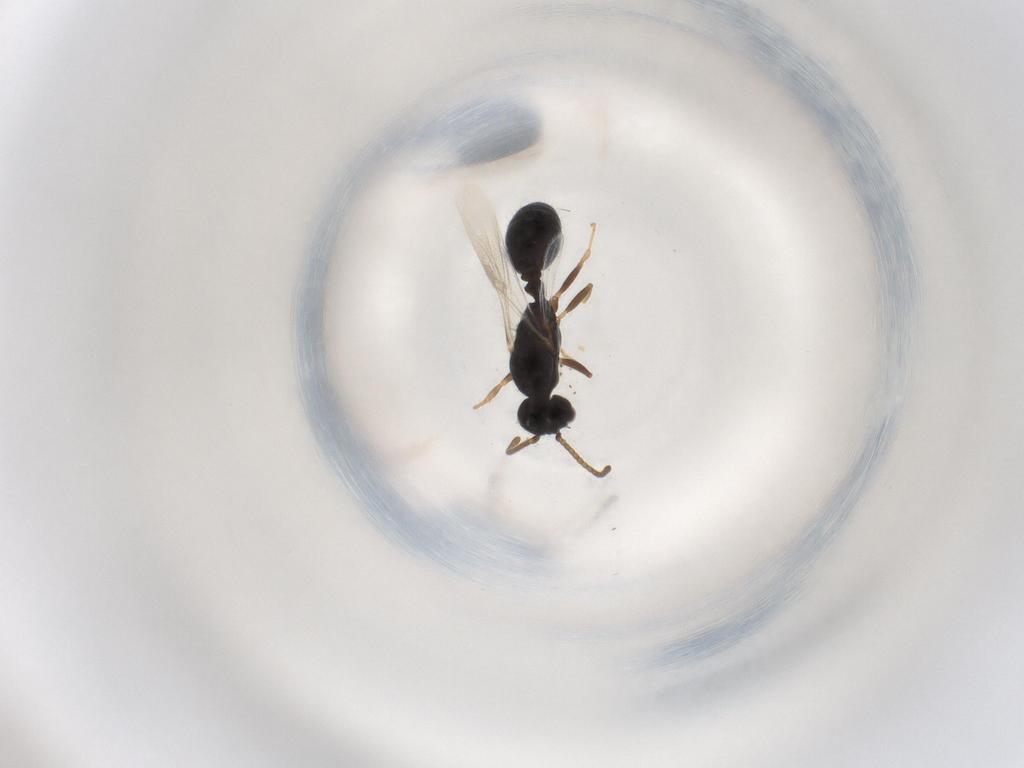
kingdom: Animalia
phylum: Arthropoda
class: Insecta
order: Hymenoptera
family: Formicidae
